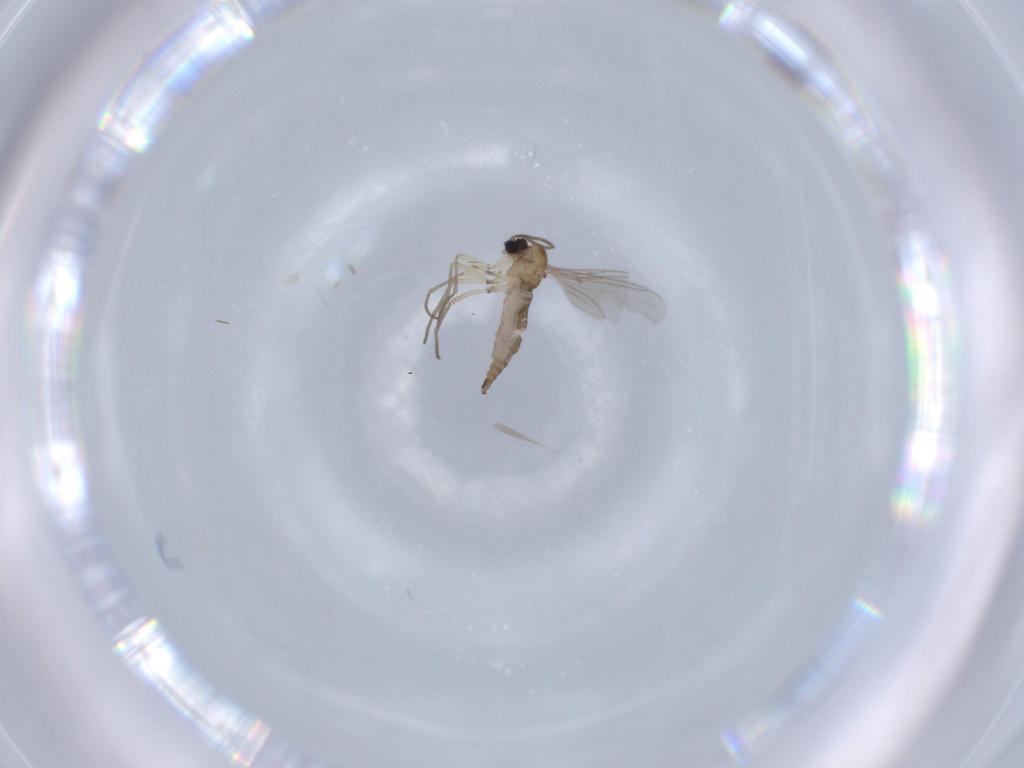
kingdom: Animalia
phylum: Arthropoda
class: Insecta
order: Diptera
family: Sciaridae
